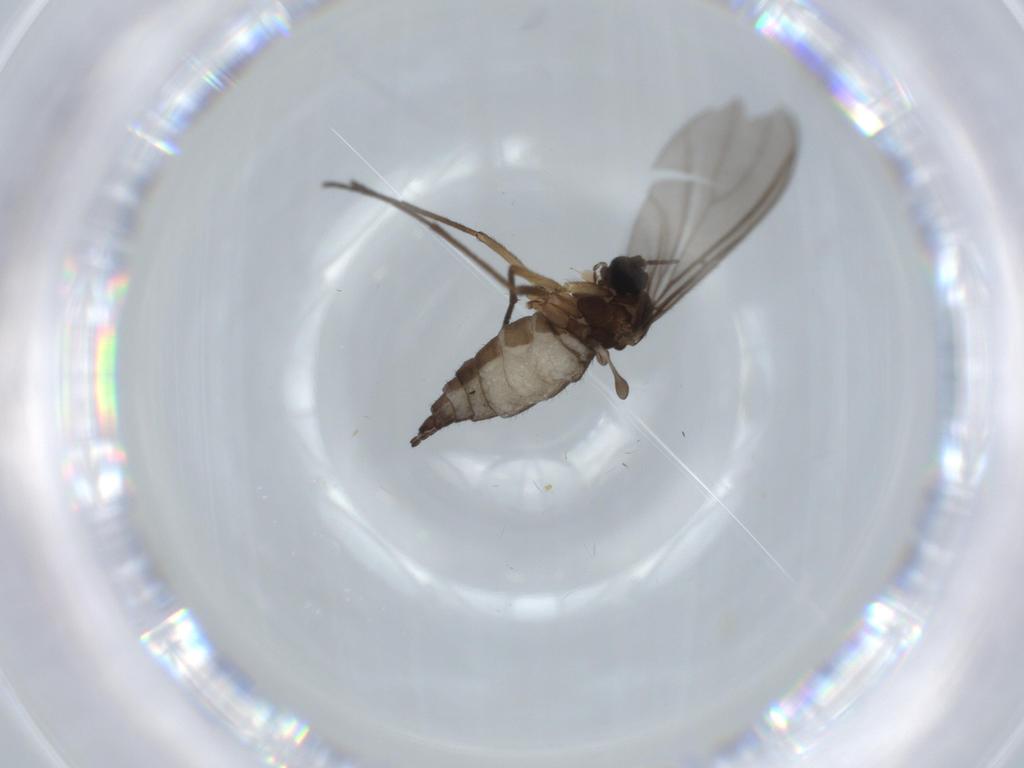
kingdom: Animalia
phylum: Arthropoda
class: Insecta
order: Diptera
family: Sciaridae
